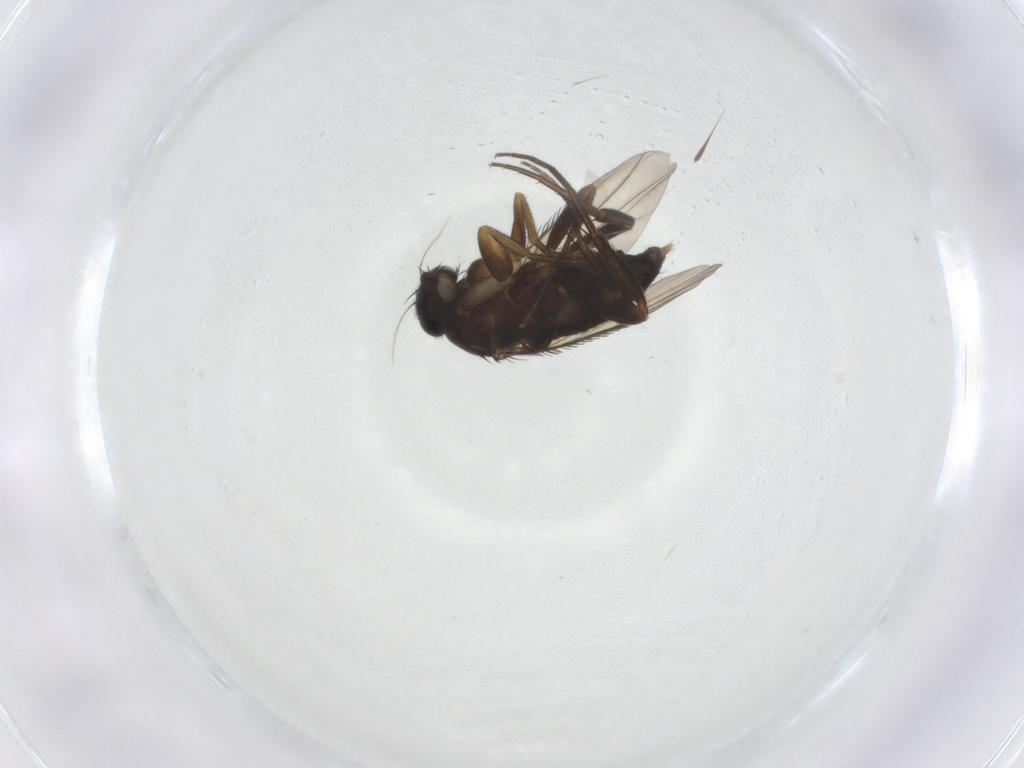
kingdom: Animalia
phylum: Arthropoda
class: Insecta
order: Diptera
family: Phoridae
